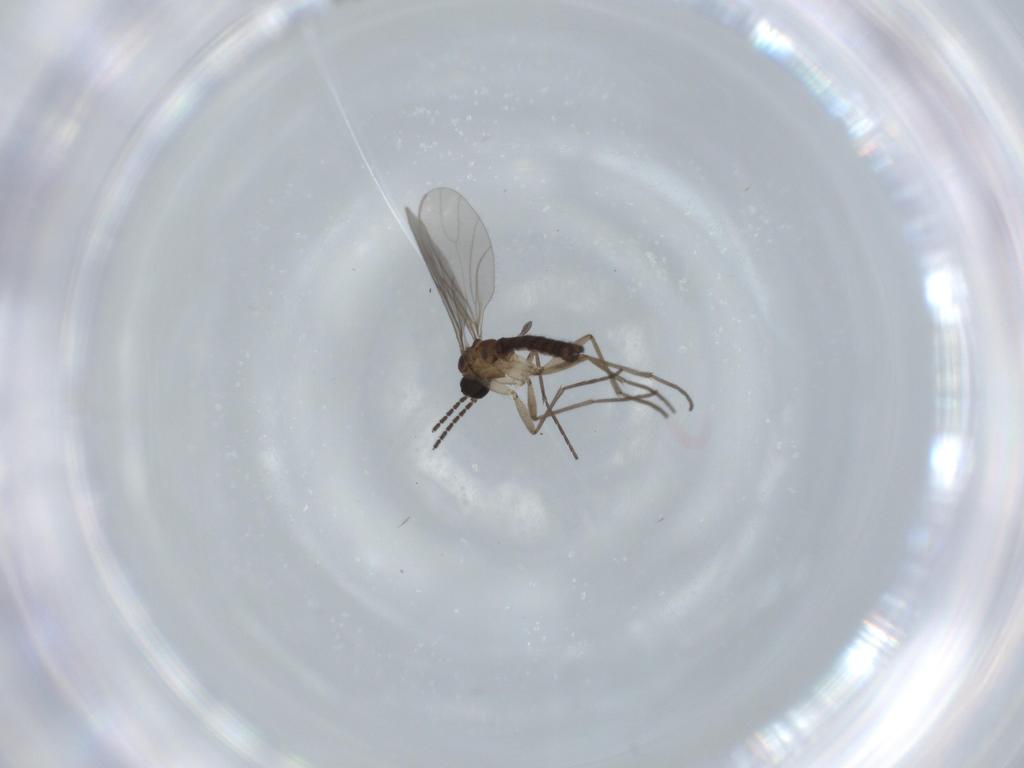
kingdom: Animalia
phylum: Arthropoda
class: Insecta
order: Diptera
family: Sciaridae
